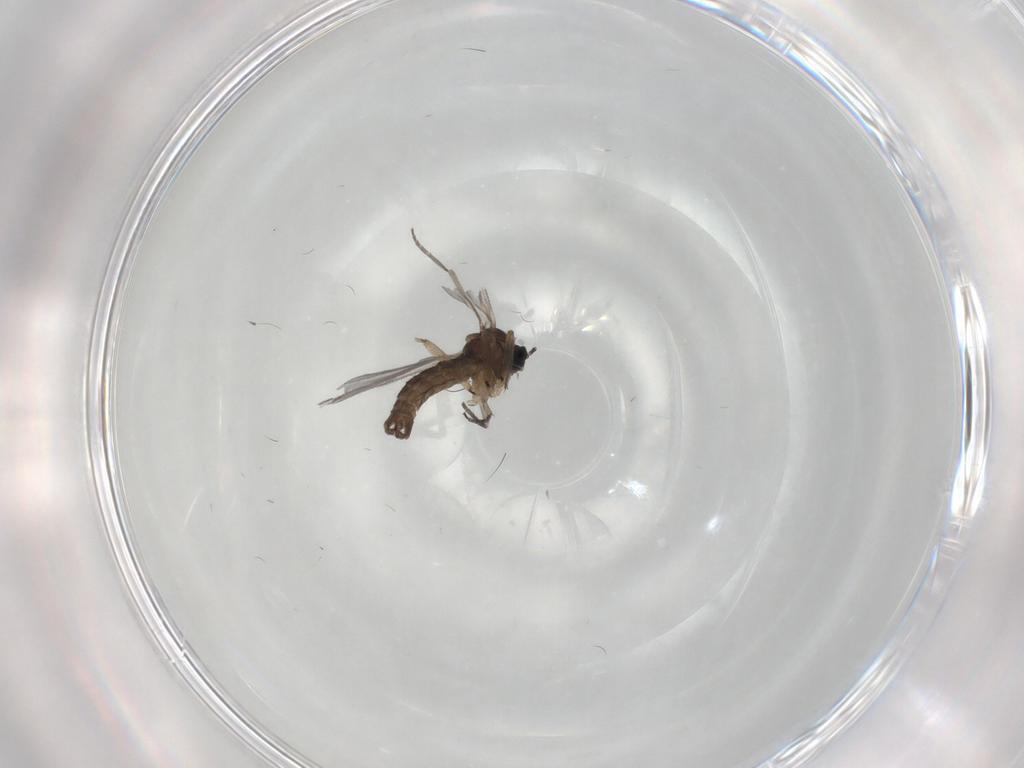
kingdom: Animalia
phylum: Arthropoda
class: Insecta
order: Diptera
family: Sciaridae
